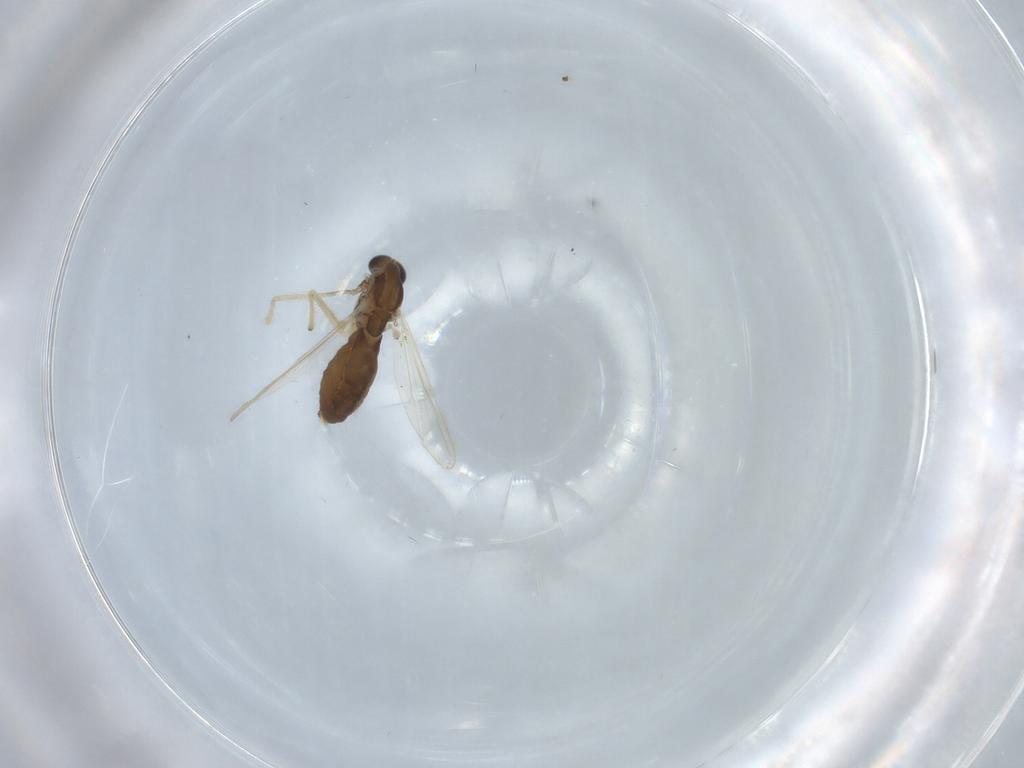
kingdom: Animalia
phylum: Arthropoda
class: Insecta
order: Diptera
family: Chironomidae
